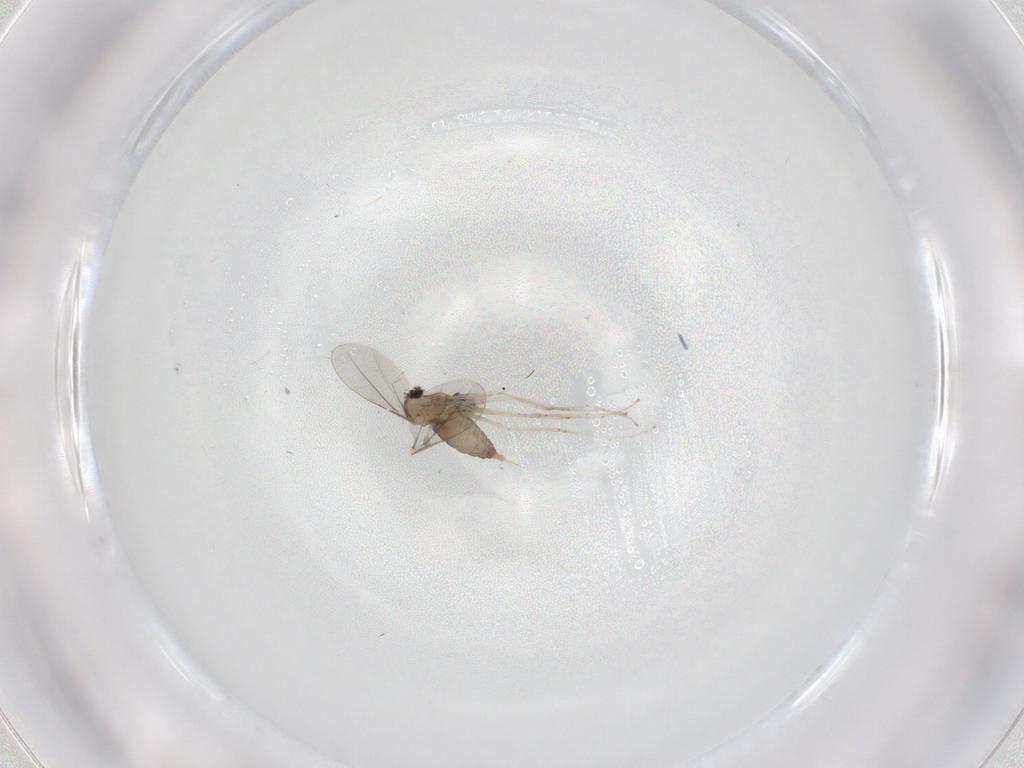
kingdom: Animalia
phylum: Arthropoda
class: Insecta
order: Diptera
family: Cecidomyiidae
